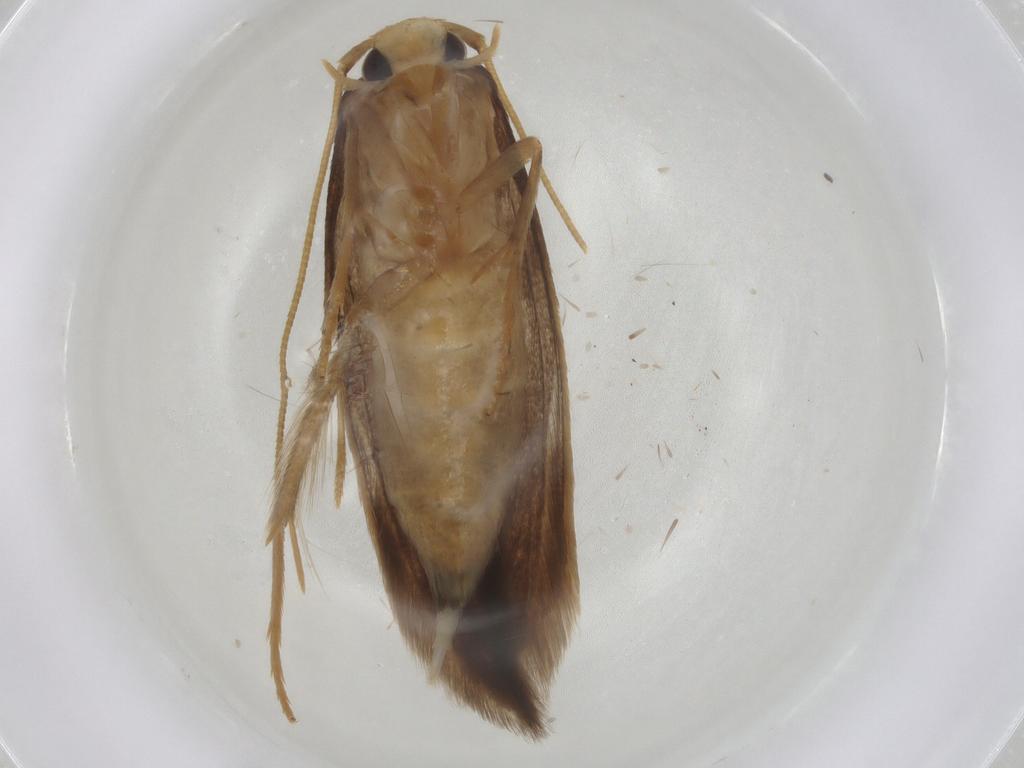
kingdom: Animalia
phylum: Arthropoda
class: Insecta
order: Lepidoptera
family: Tineidae
